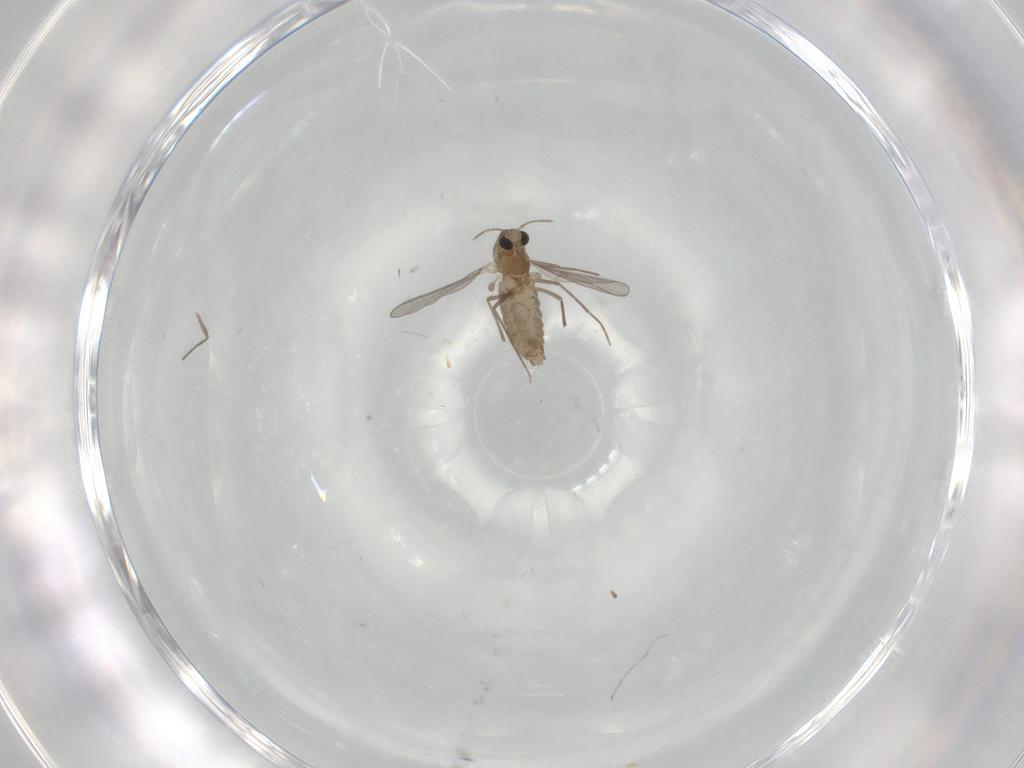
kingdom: Animalia
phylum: Arthropoda
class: Insecta
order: Diptera
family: Chironomidae
